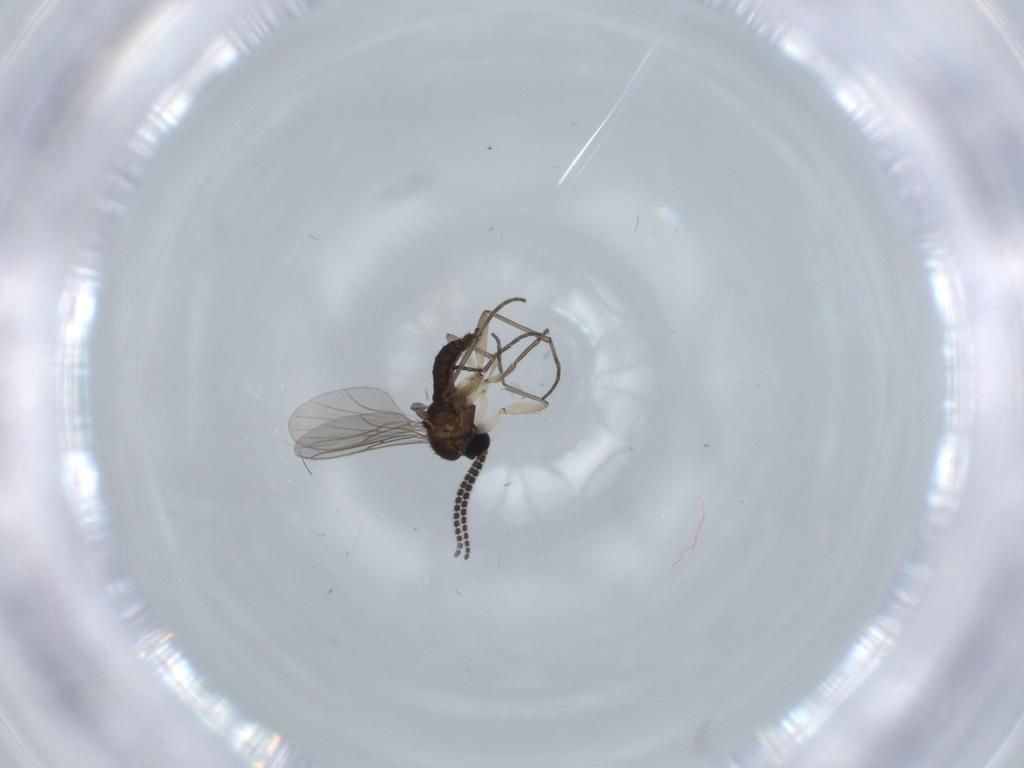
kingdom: Animalia
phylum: Arthropoda
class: Insecta
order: Diptera
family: Sciaridae
